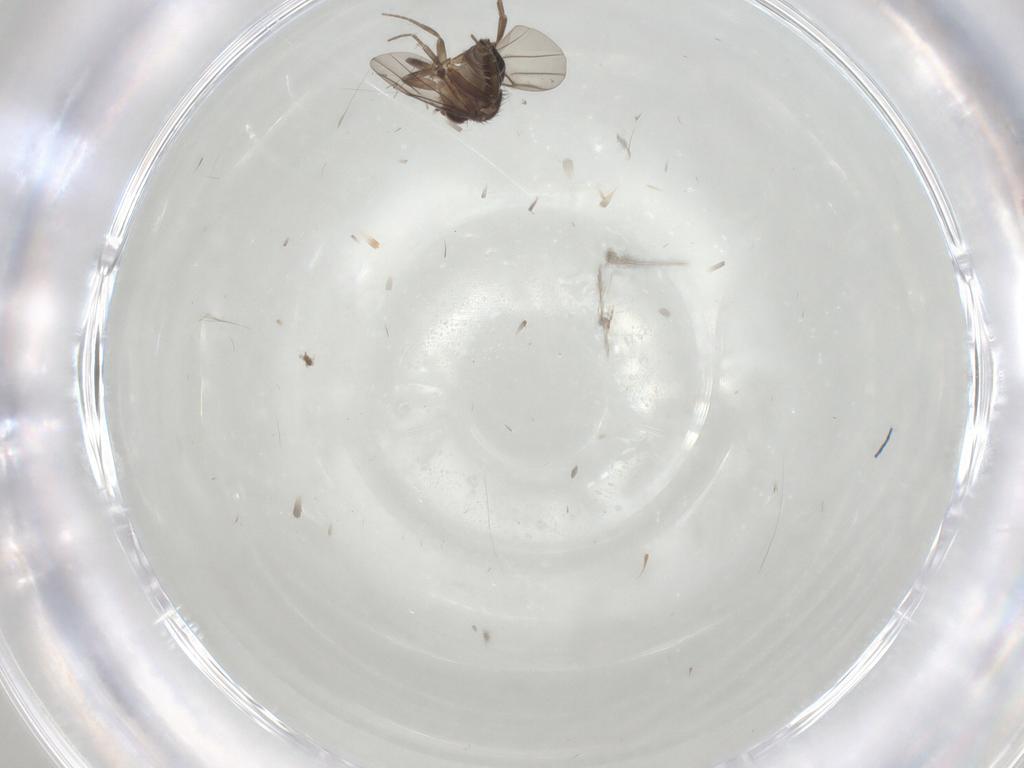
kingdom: Animalia
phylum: Arthropoda
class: Insecta
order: Diptera
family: Phoridae
